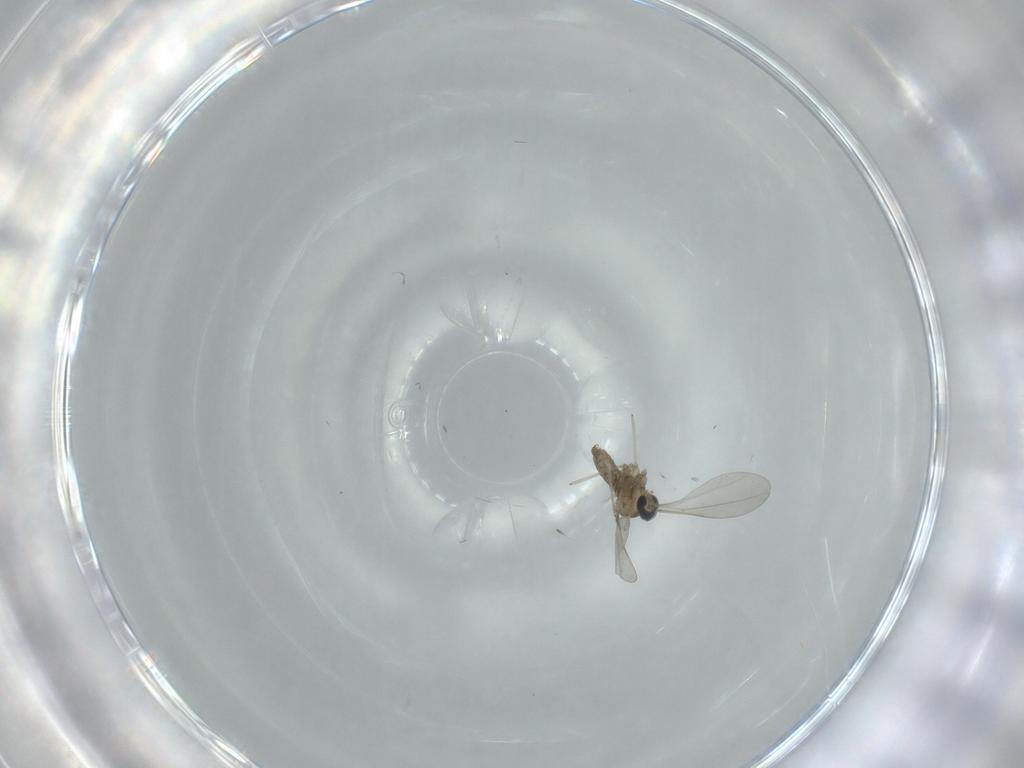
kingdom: Animalia
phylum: Arthropoda
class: Insecta
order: Diptera
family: Cecidomyiidae
